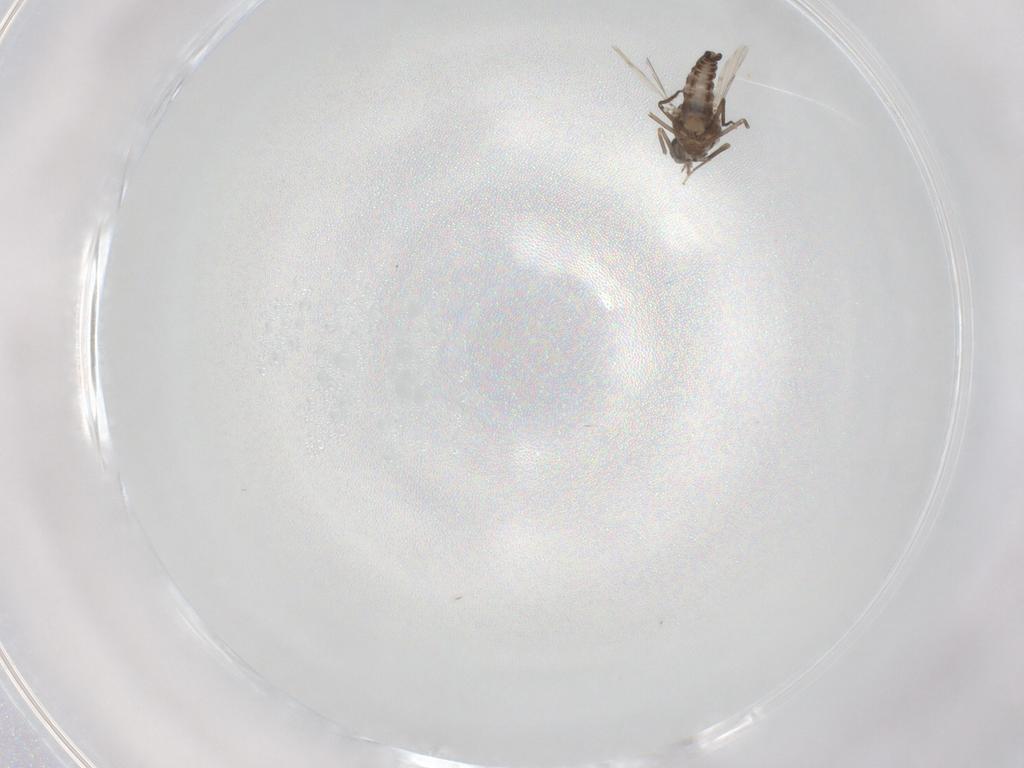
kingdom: Animalia
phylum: Arthropoda
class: Insecta
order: Diptera
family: Ceratopogonidae
